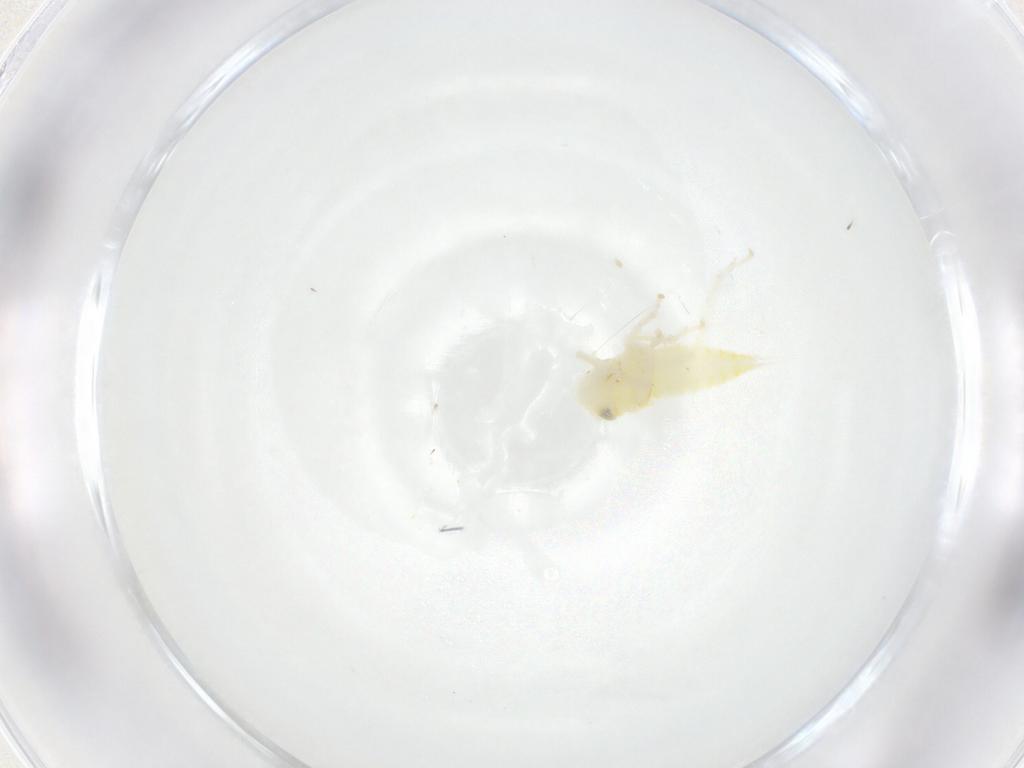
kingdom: Animalia
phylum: Arthropoda
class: Insecta
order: Hemiptera
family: Cicadellidae
